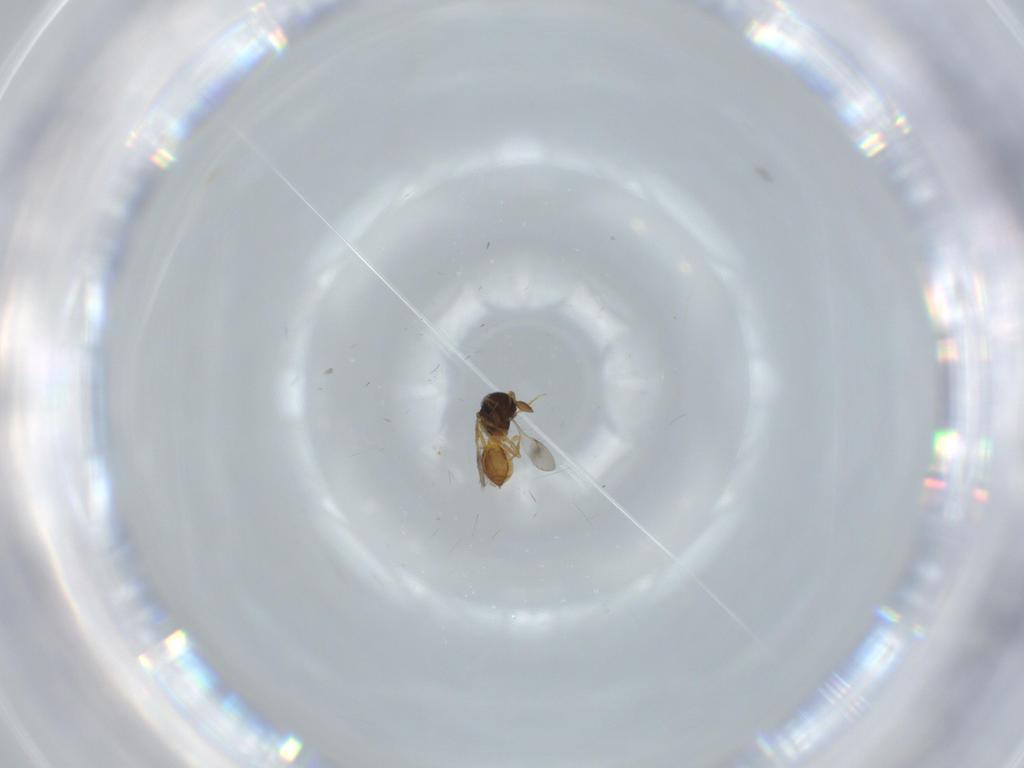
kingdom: Animalia
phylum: Arthropoda
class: Insecta
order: Hymenoptera
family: Scelionidae
